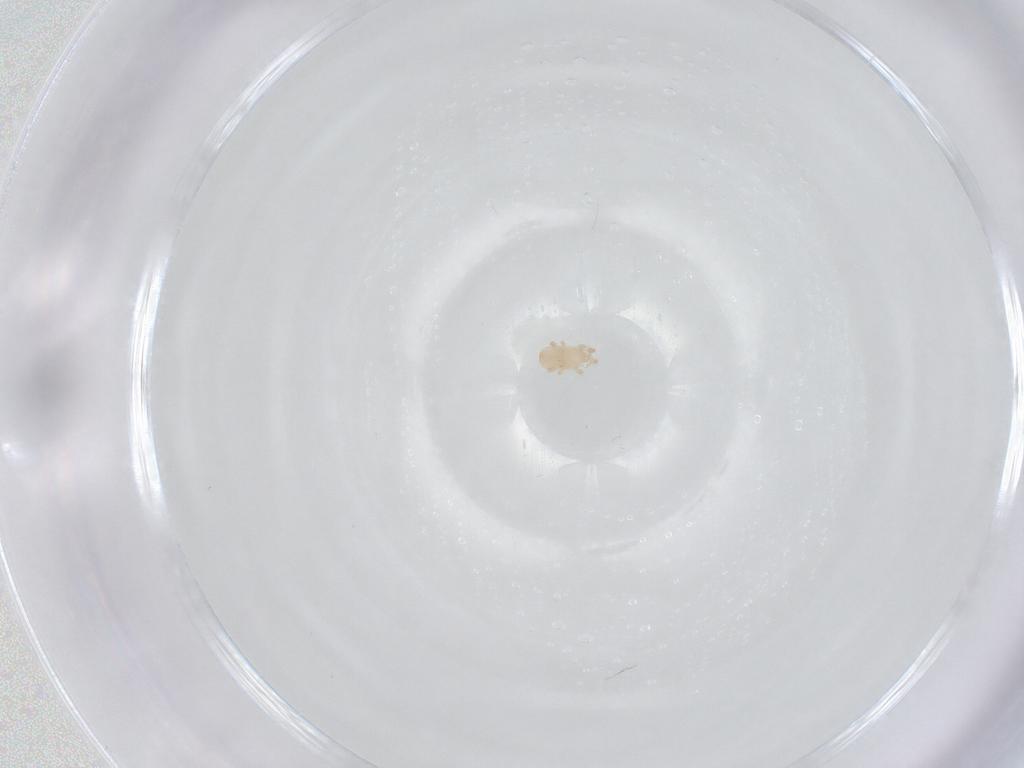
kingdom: Animalia
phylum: Arthropoda
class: Arachnida
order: Mesostigmata
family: Digamasellidae
